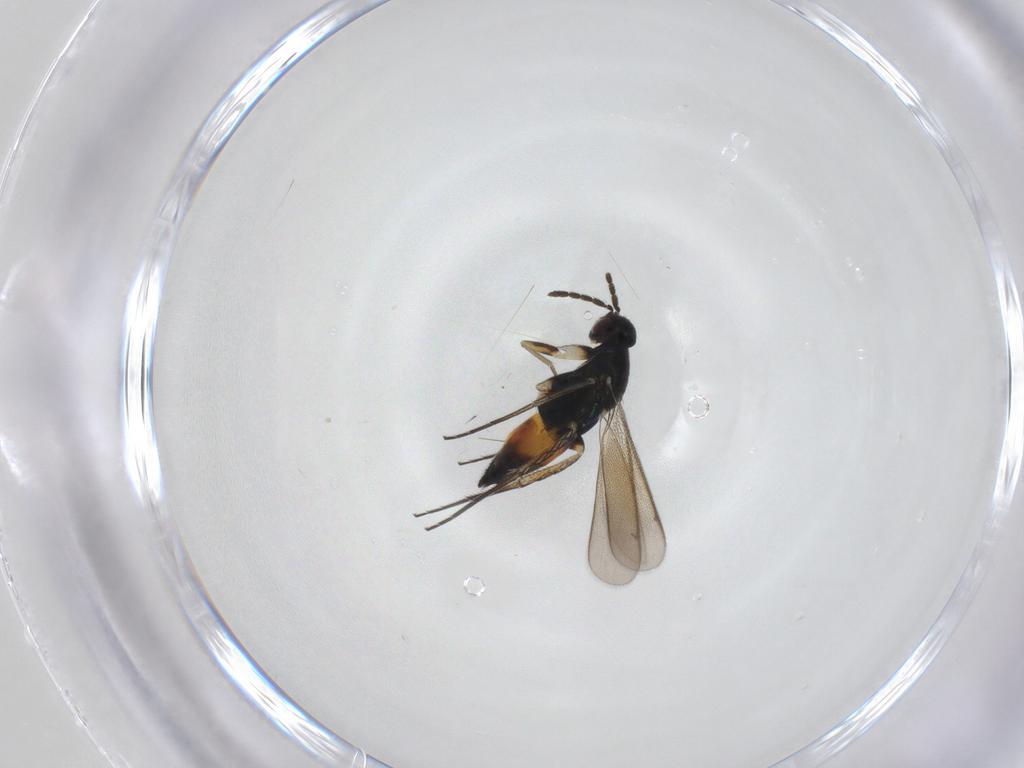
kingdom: Animalia
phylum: Arthropoda
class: Insecta
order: Hymenoptera
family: Eulophidae
